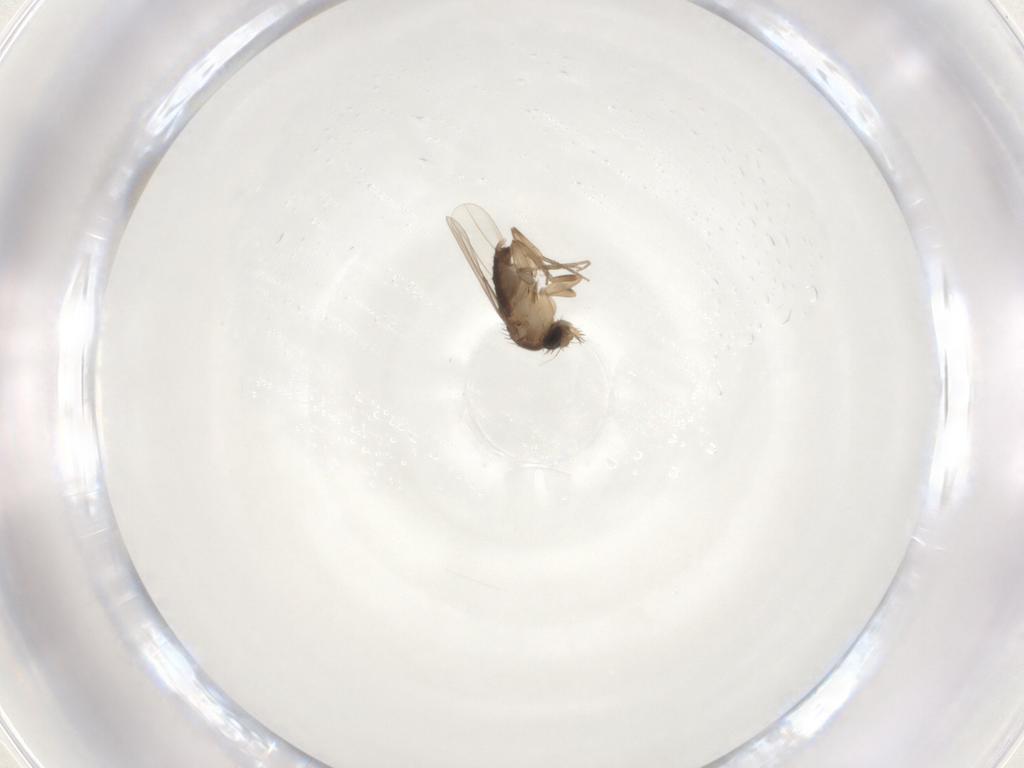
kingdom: Animalia
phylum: Arthropoda
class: Insecta
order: Diptera
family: Phoridae
